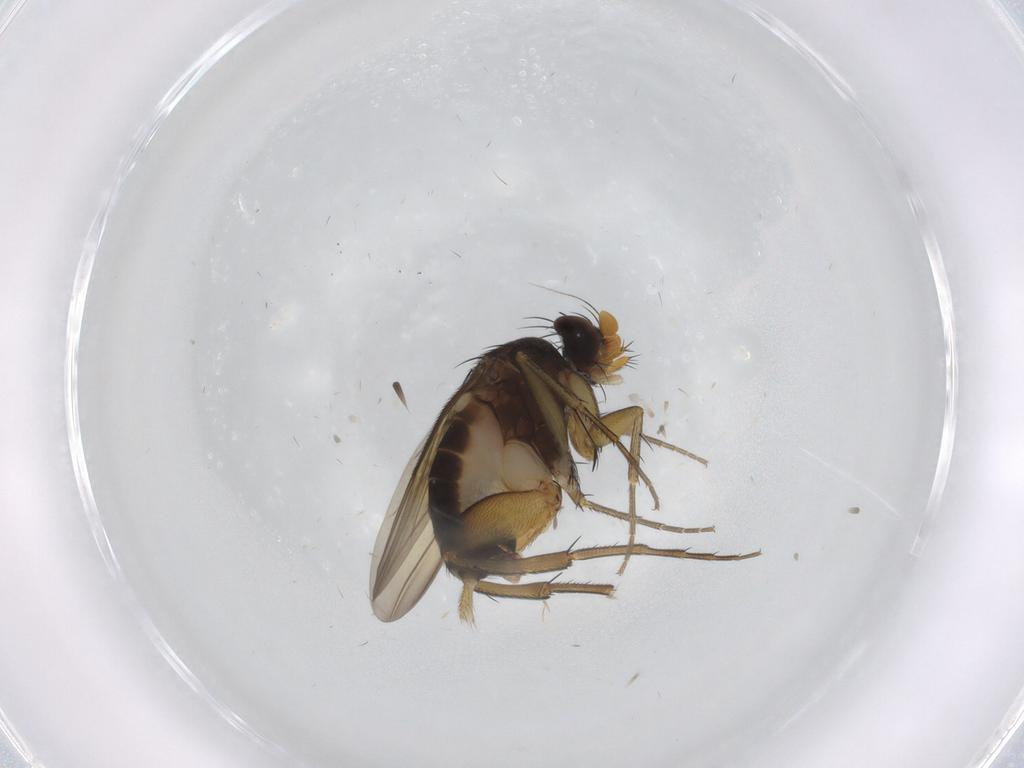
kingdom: Animalia
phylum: Arthropoda
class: Insecta
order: Diptera
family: Phoridae
